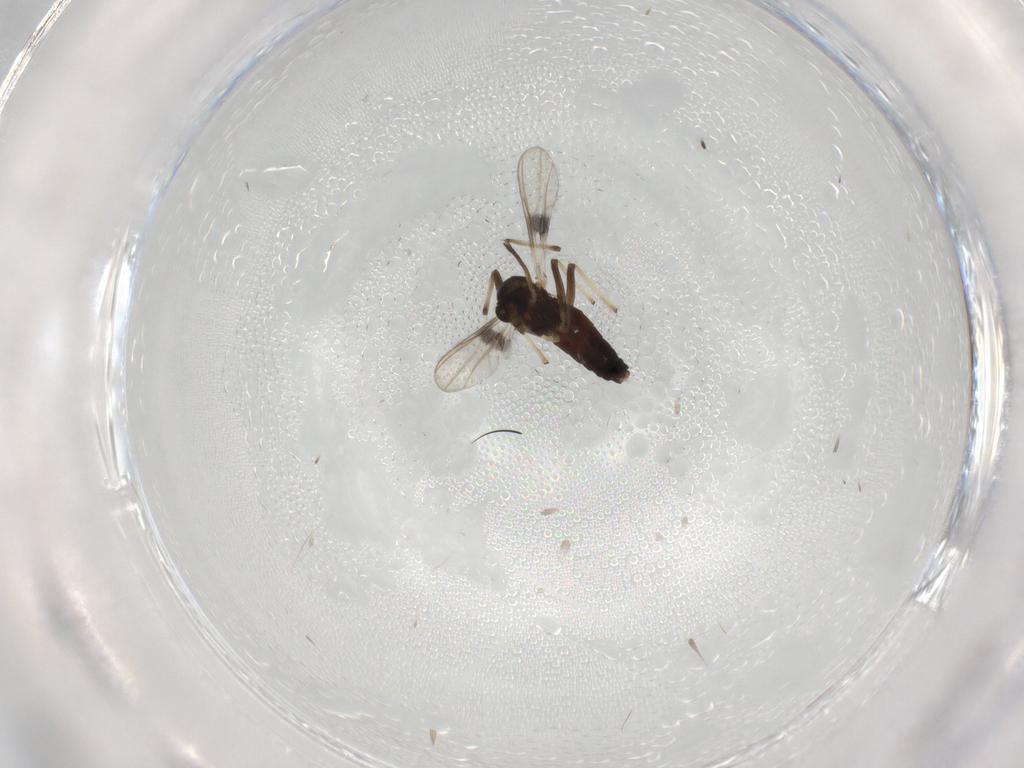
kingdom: Animalia
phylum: Arthropoda
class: Insecta
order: Diptera
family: Chironomidae
